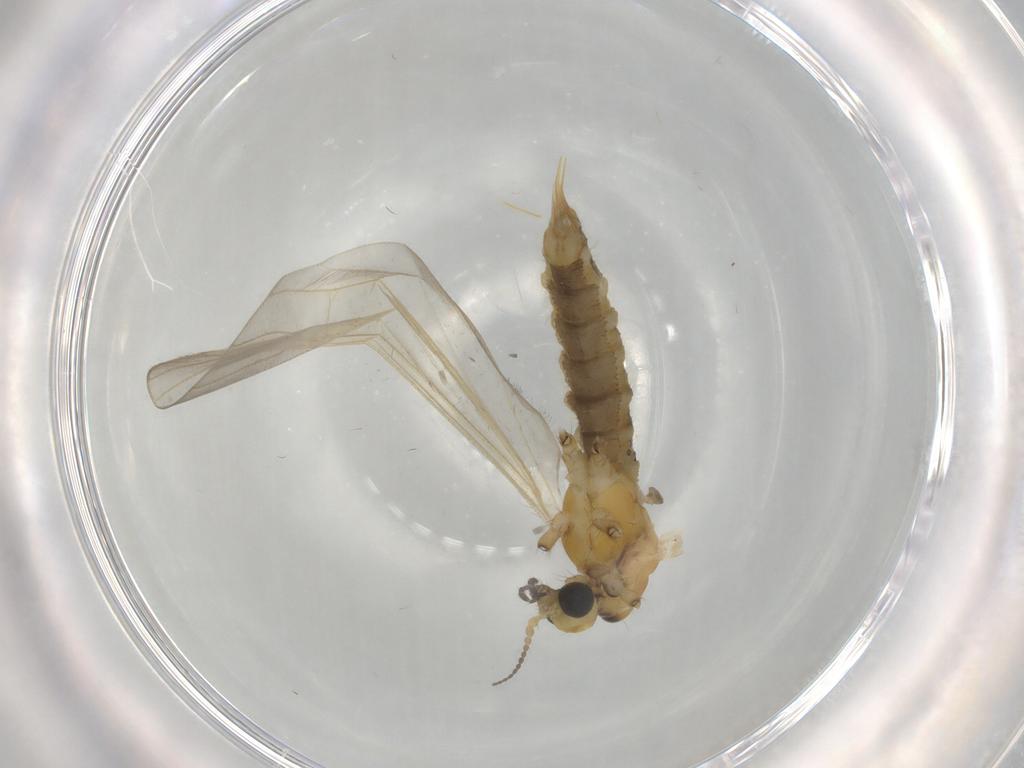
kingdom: Animalia
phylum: Arthropoda
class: Insecta
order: Diptera
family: Limoniidae
